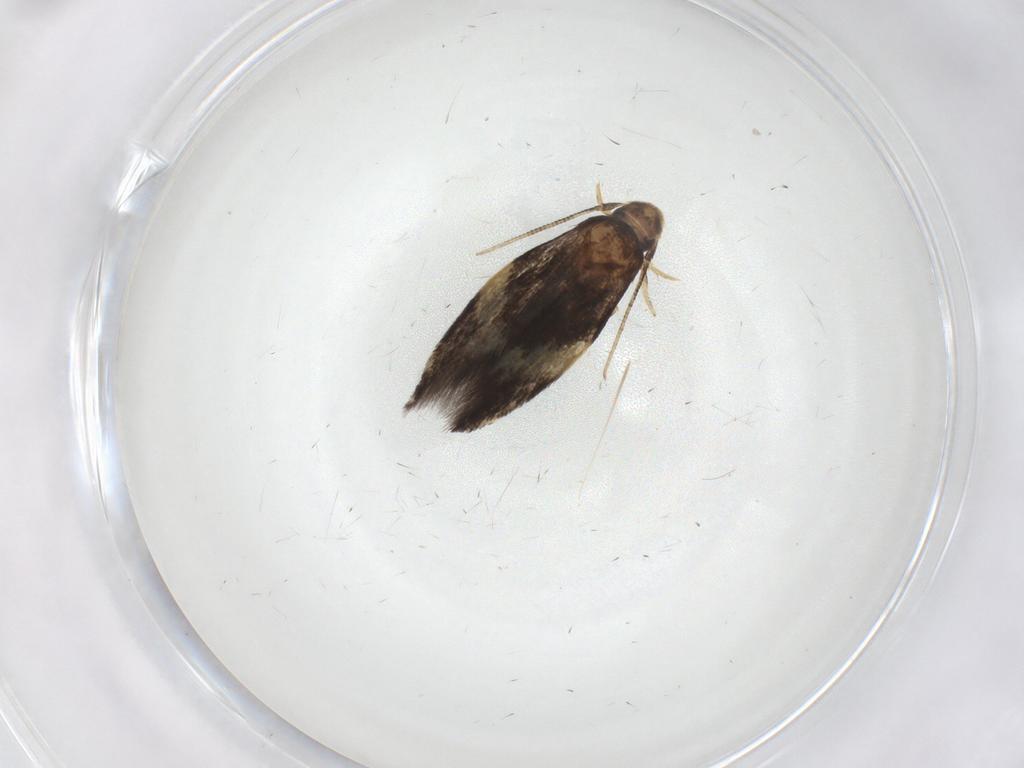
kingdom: Animalia
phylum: Arthropoda
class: Insecta
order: Lepidoptera
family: Gelechiidae
